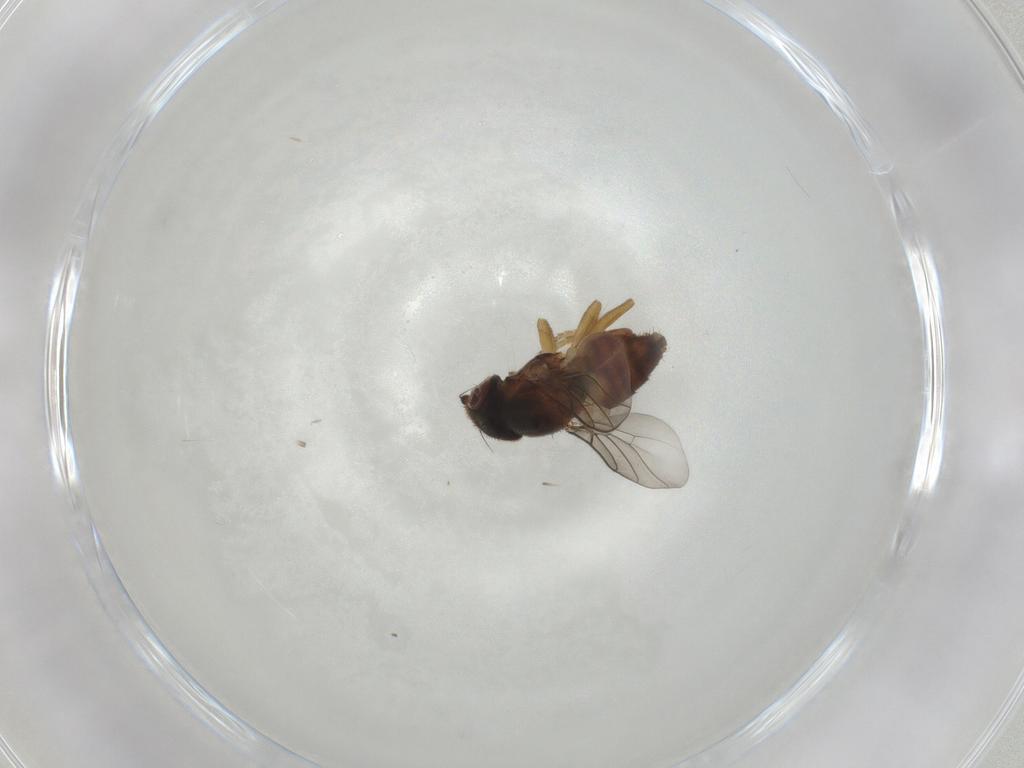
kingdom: Animalia
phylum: Arthropoda
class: Insecta
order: Diptera
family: Chloropidae
